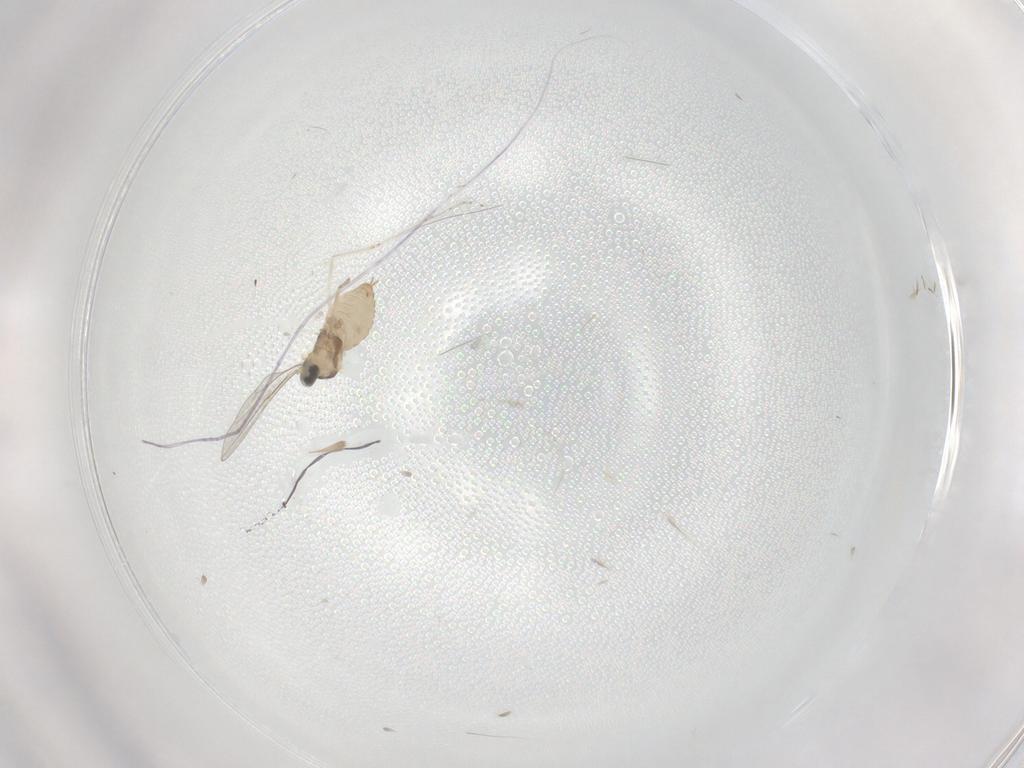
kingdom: Animalia
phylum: Arthropoda
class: Insecta
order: Diptera
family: Cecidomyiidae
